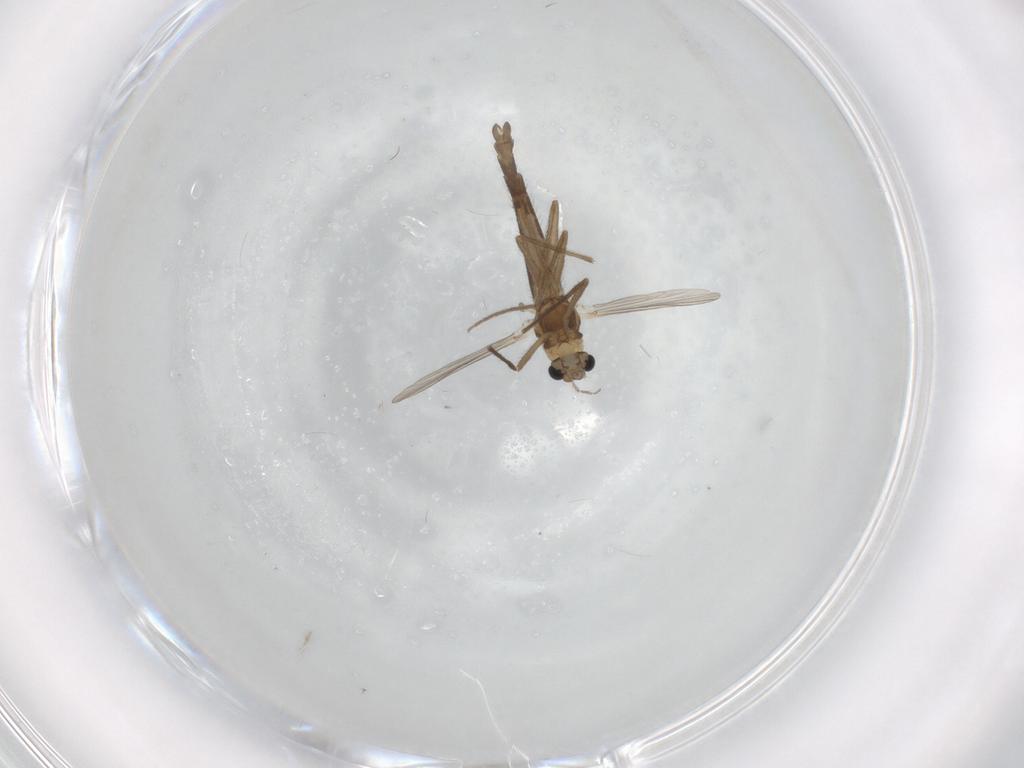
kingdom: Animalia
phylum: Arthropoda
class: Insecta
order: Diptera
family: Chironomidae
